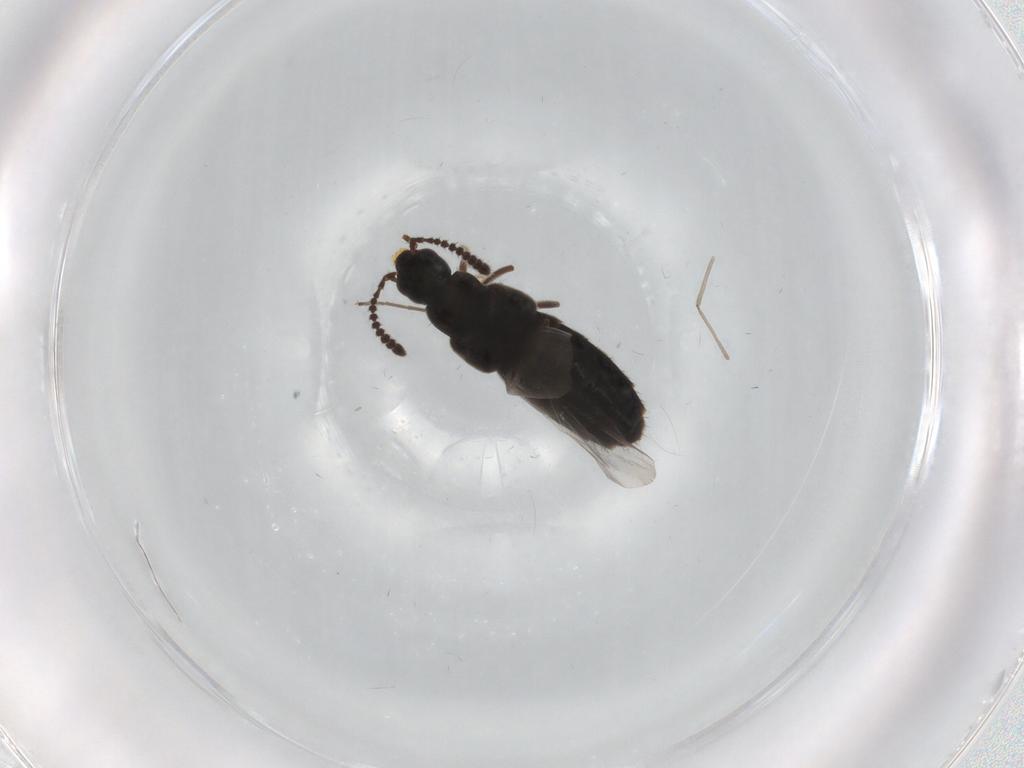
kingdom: Animalia
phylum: Arthropoda
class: Insecta
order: Coleoptera
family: Staphylinidae
